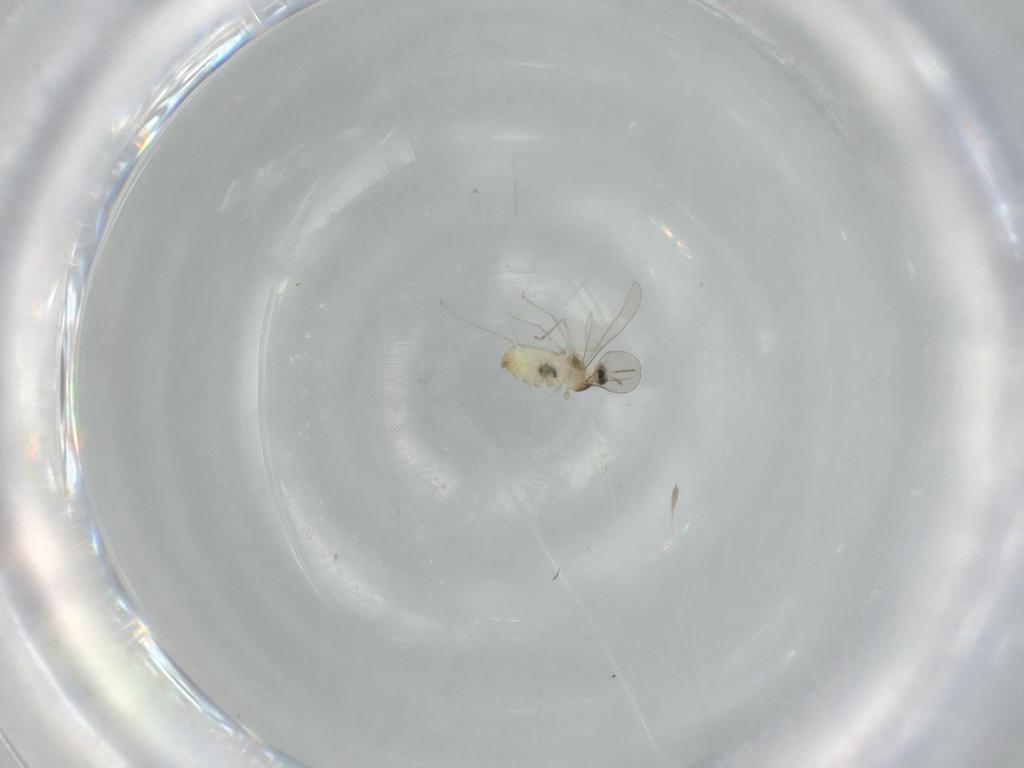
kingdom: Animalia
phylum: Arthropoda
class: Insecta
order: Diptera
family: Cecidomyiidae
